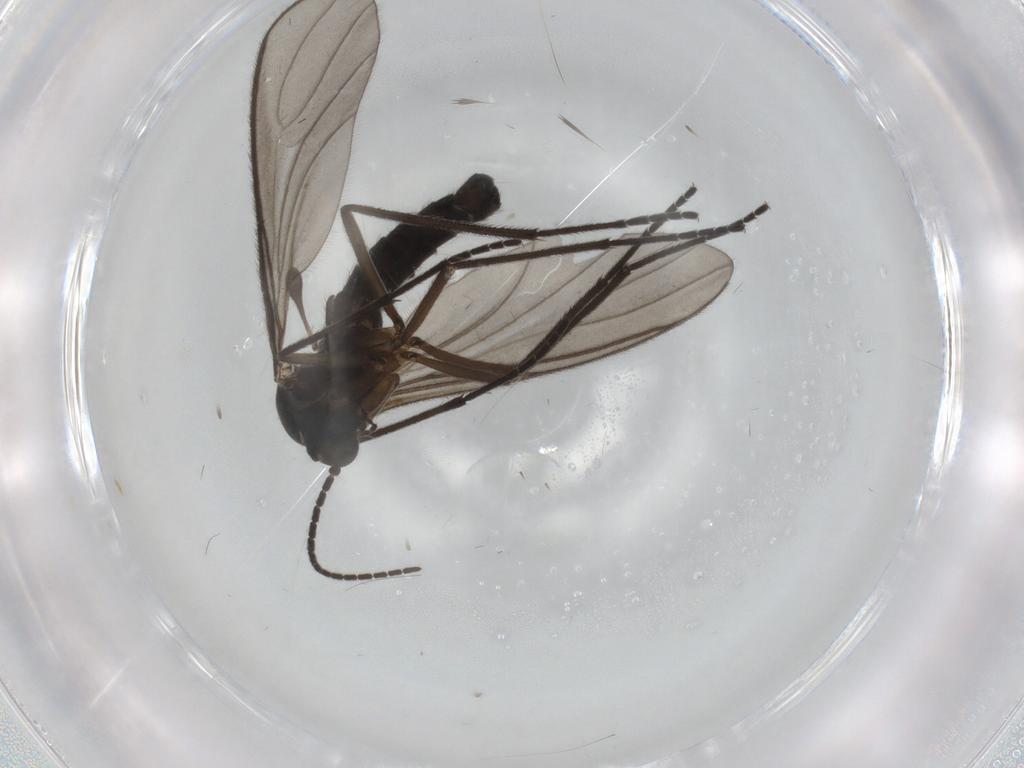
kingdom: Animalia
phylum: Arthropoda
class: Insecta
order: Diptera
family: Sciaridae
